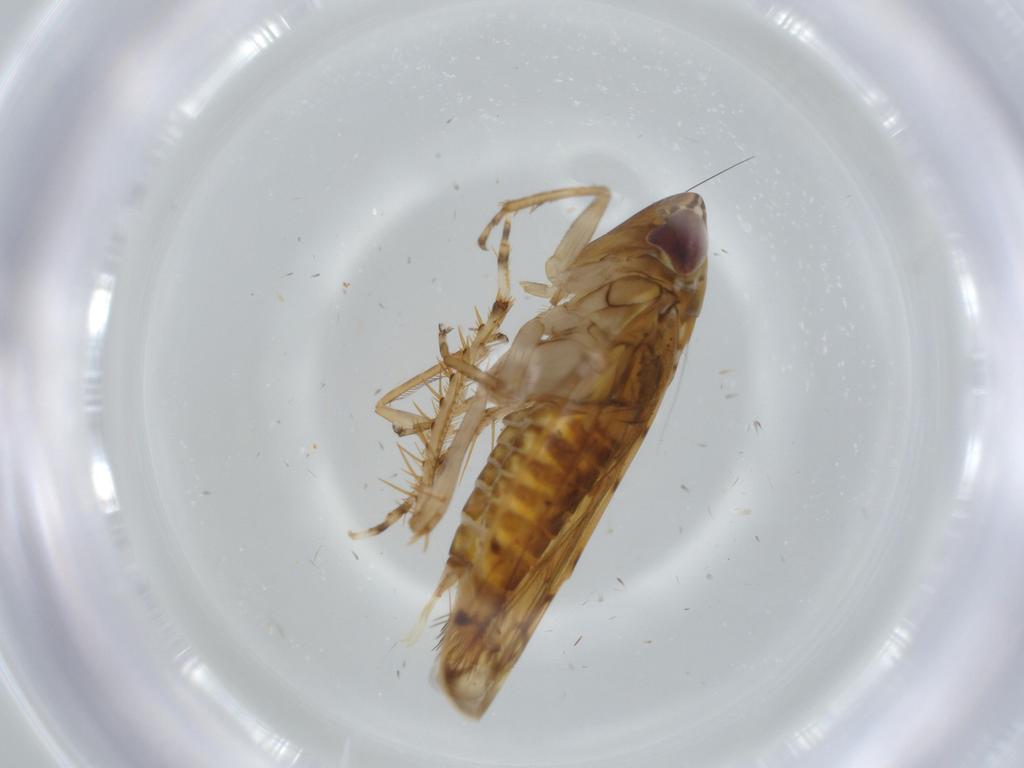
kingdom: Animalia
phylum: Arthropoda
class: Insecta
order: Hemiptera
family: Cicadellidae
